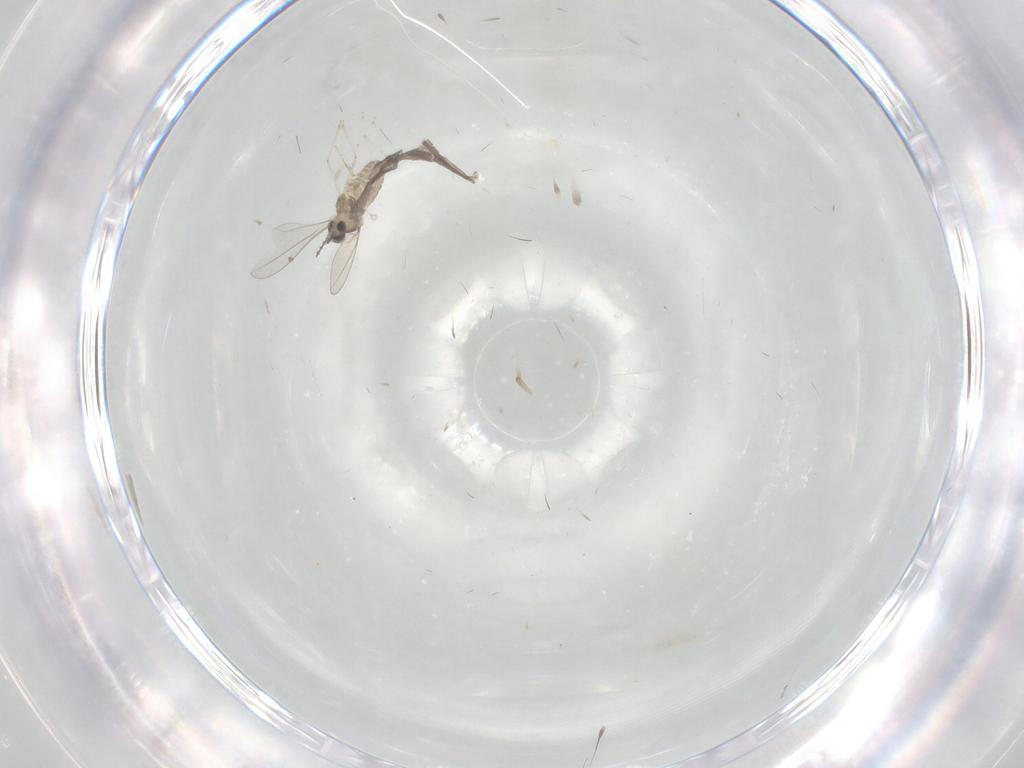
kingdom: Animalia
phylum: Arthropoda
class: Insecta
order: Diptera
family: Cecidomyiidae
